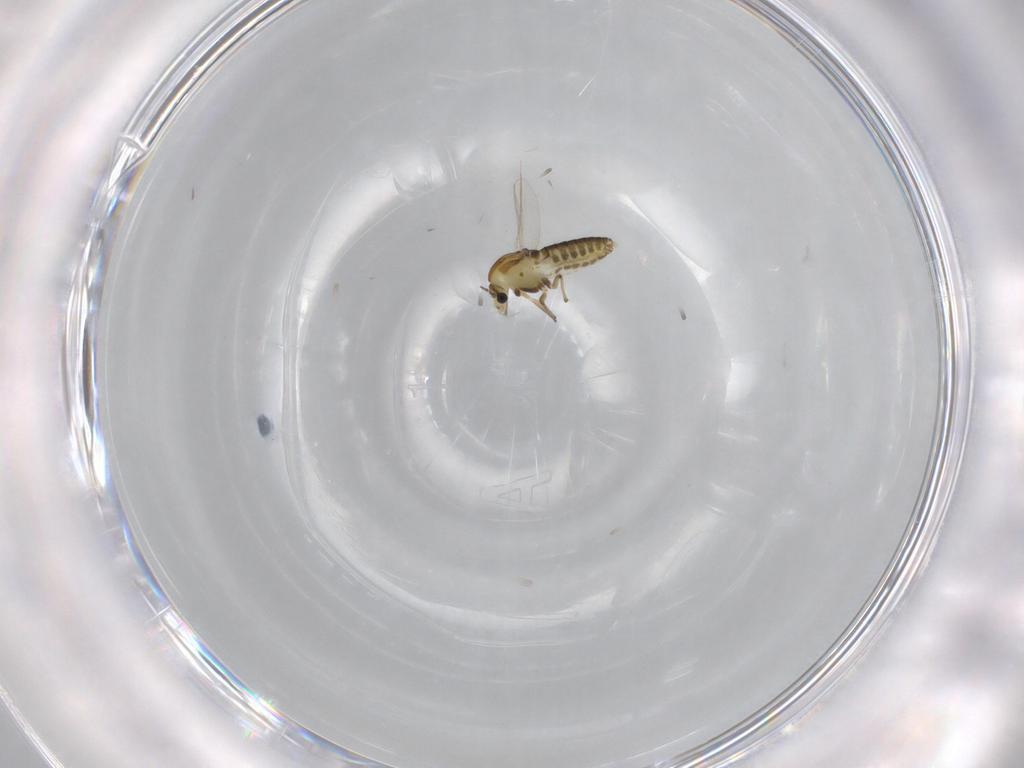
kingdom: Animalia
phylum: Arthropoda
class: Insecta
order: Diptera
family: Chironomidae
